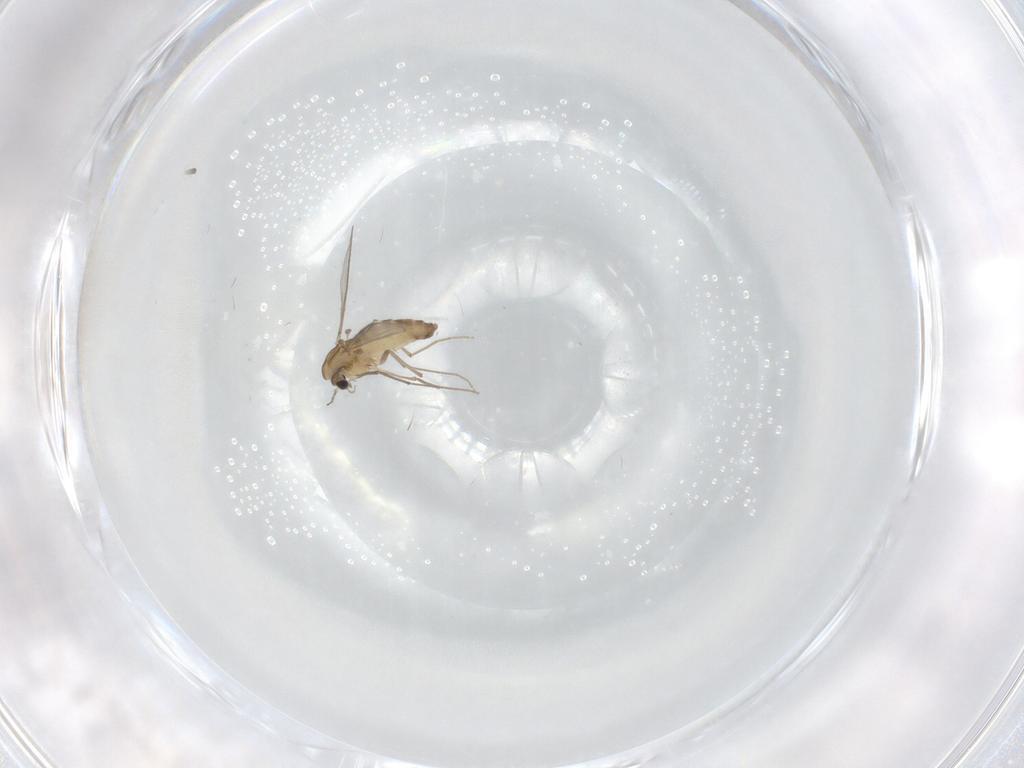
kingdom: Animalia
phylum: Arthropoda
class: Insecta
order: Diptera
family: Chironomidae
